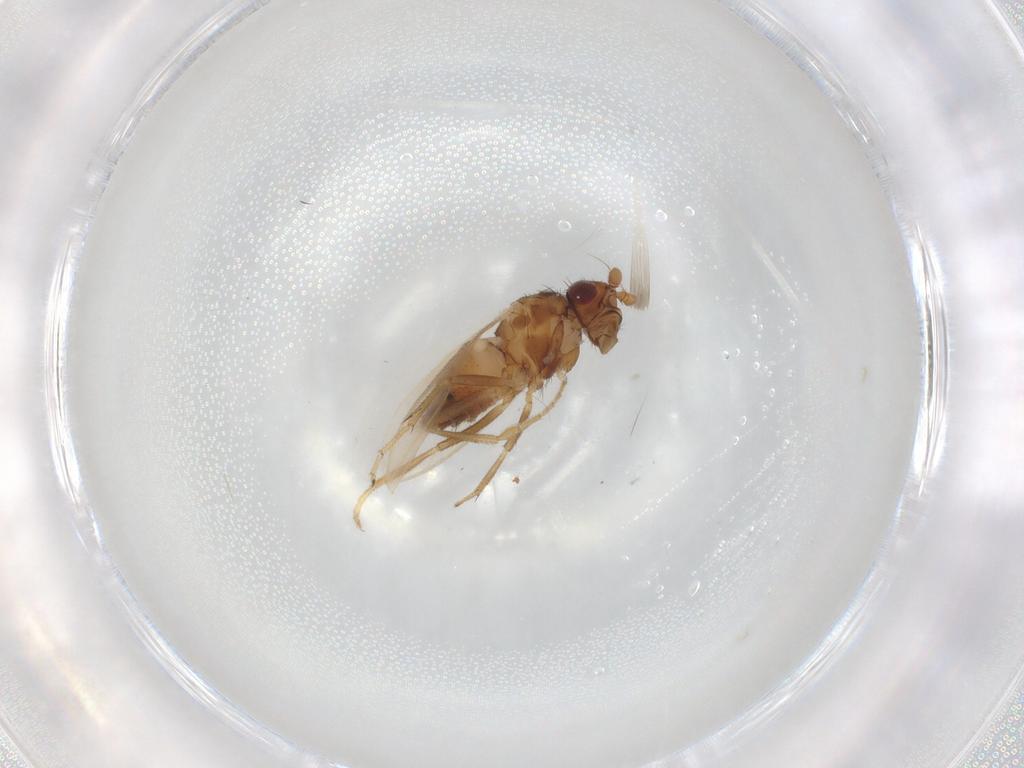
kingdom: Animalia
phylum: Arthropoda
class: Insecta
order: Diptera
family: Sphaeroceridae
